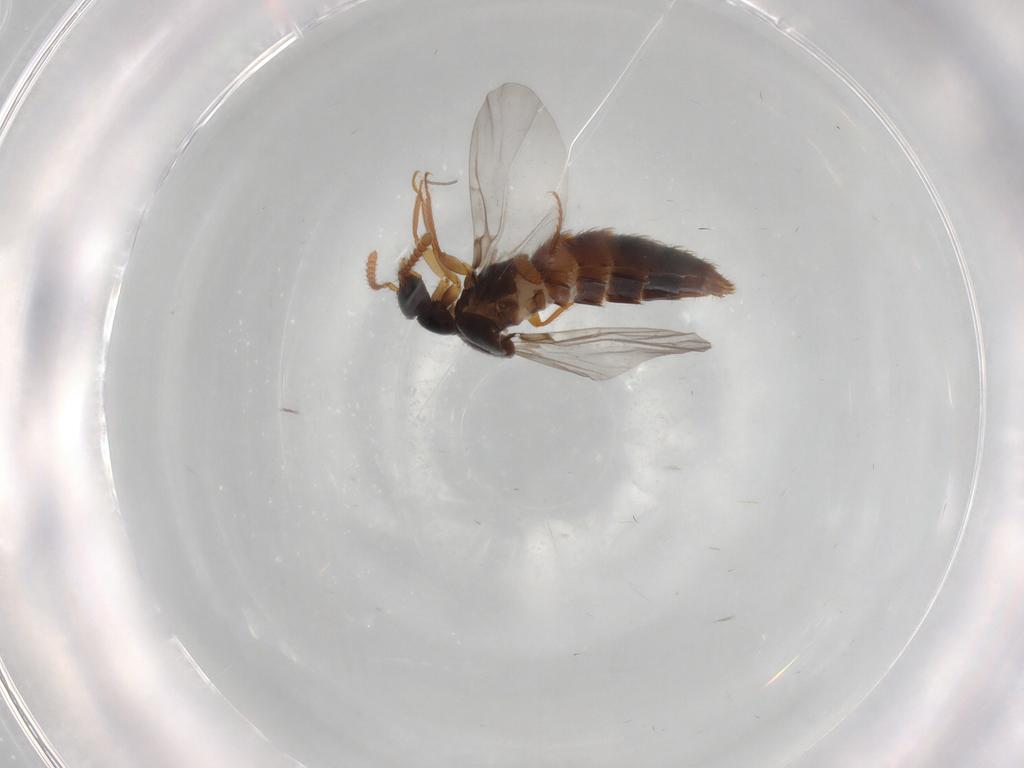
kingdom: Animalia
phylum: Arthropoda
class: Insecta
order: Coleoptera
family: Staphylinidae
